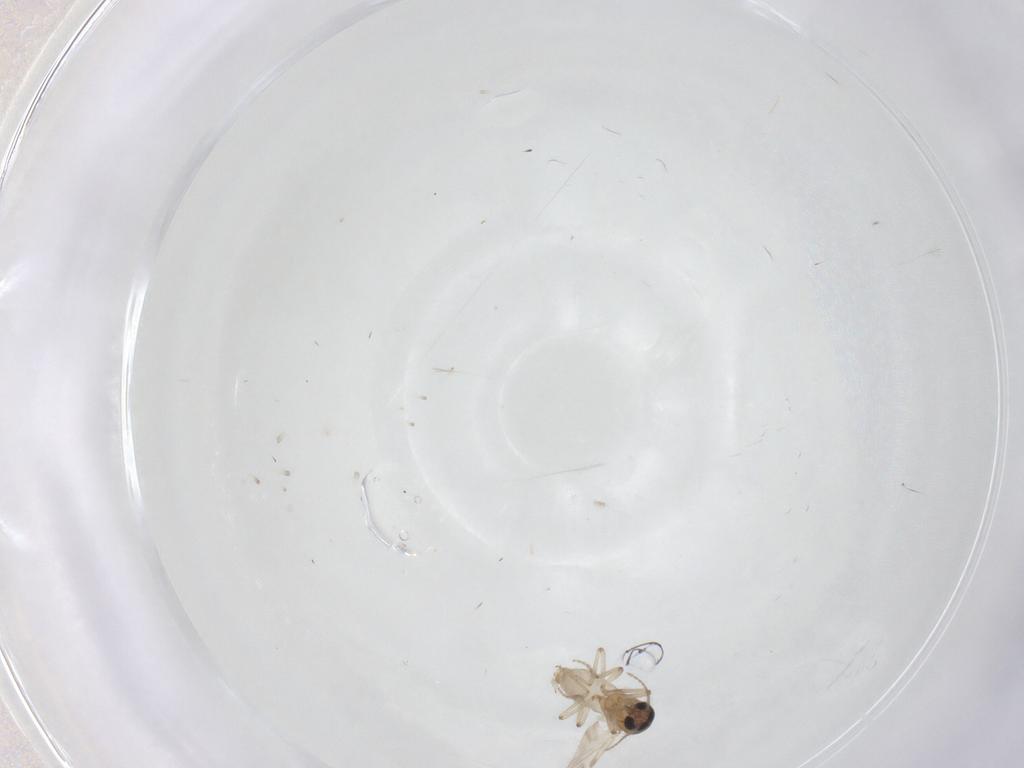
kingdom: Animalia
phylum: Arthropoda
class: Insecta
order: Diptera
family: Ceratopogonidae
